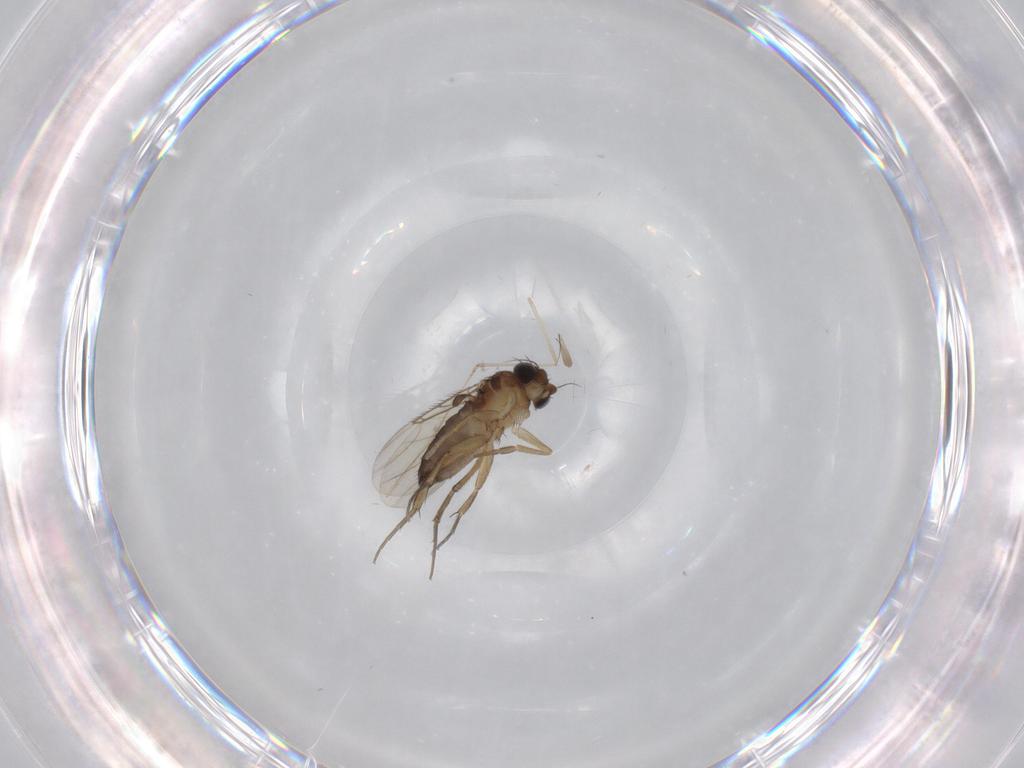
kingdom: Animalia
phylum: Arthropoda
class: Insecta
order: Diptera
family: Cecidomyiidae
